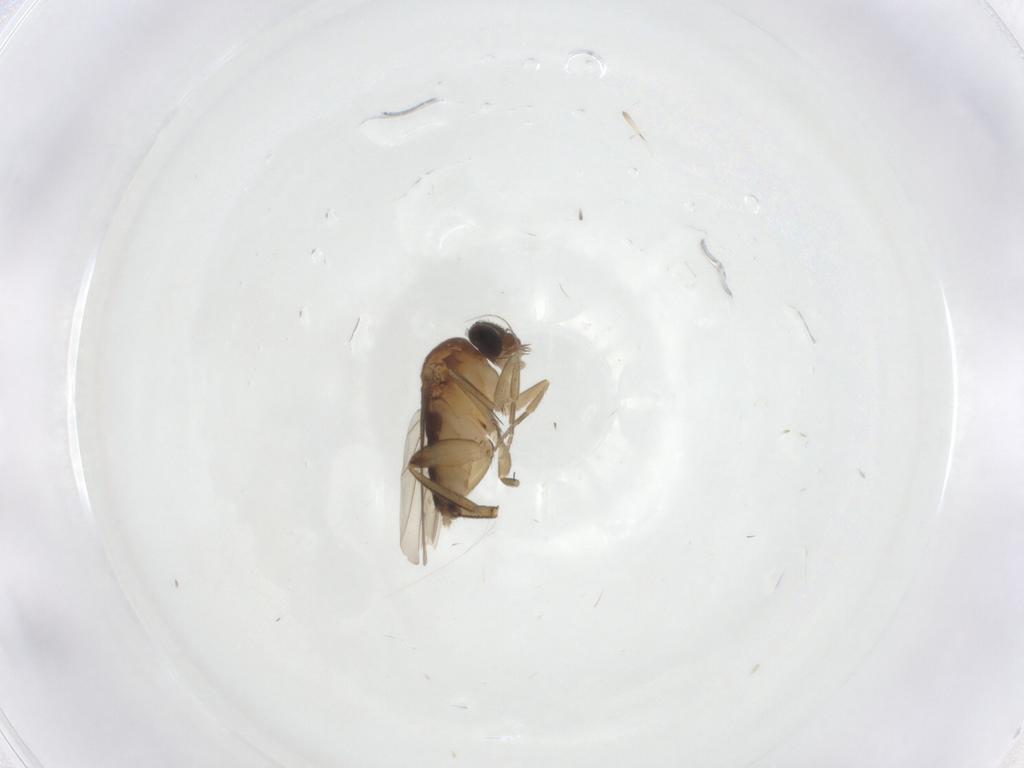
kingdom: Animalia
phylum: Arthropoda
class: Insecta
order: Diptera
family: Phoridae
